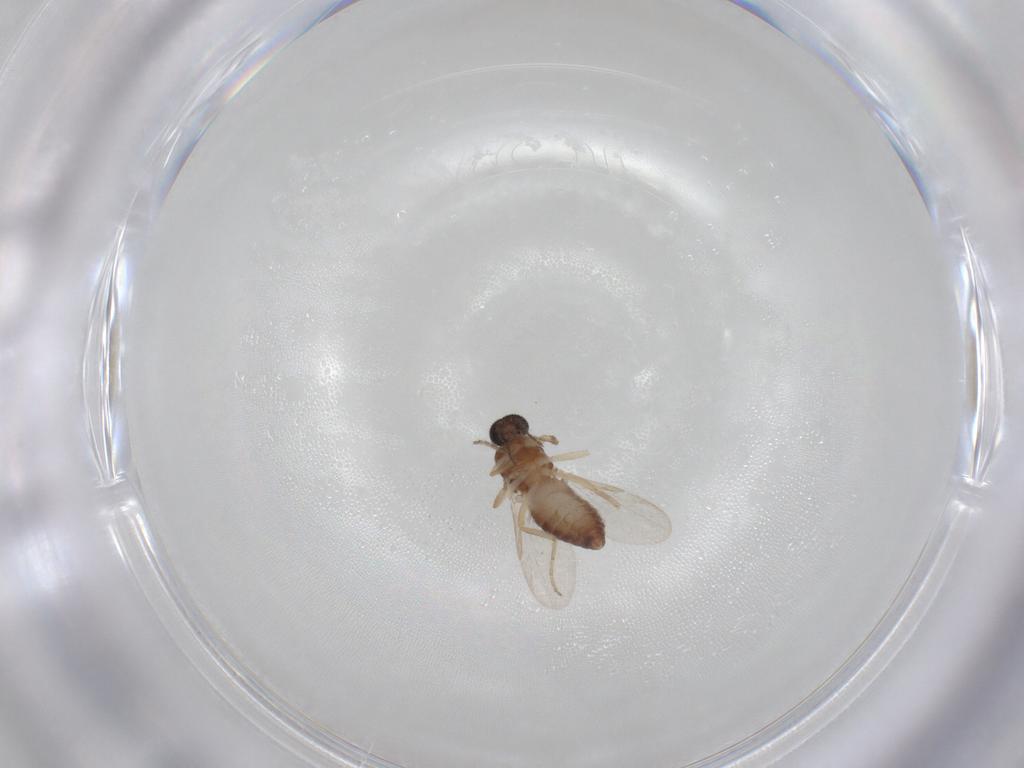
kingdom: Animalia
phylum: Arthropoda
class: Insecta
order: Diptera
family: Ceratopogonidae
